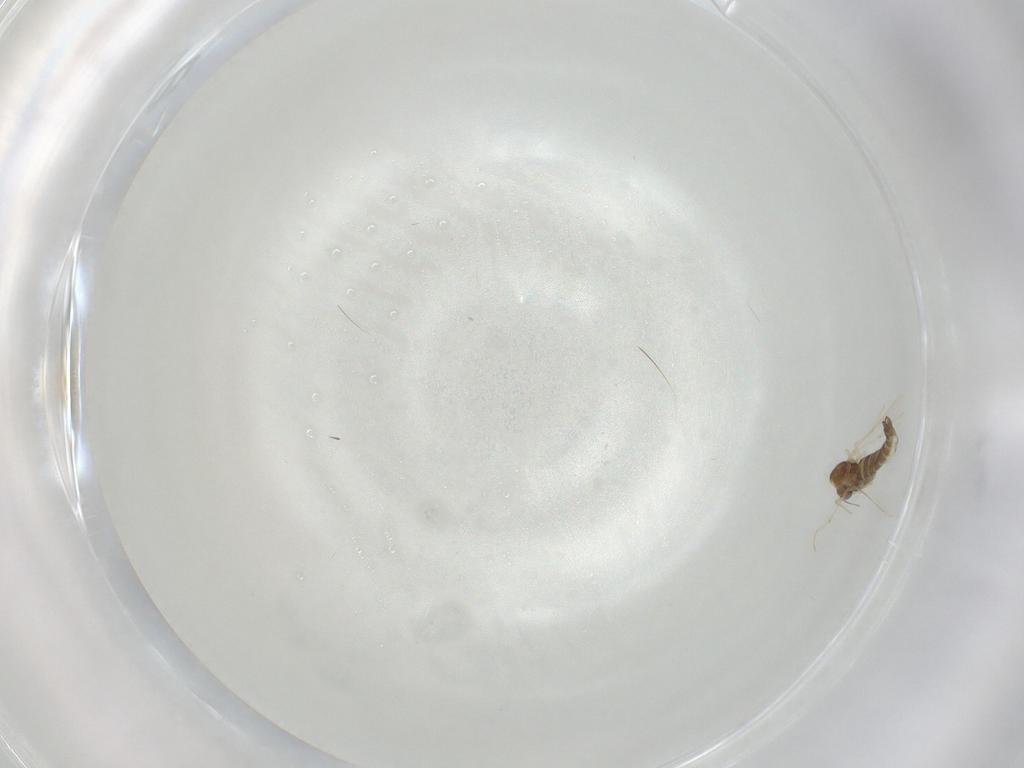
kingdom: Animalia
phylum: Arthropoda
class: Insecta
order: Diptera
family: Chironomidae
